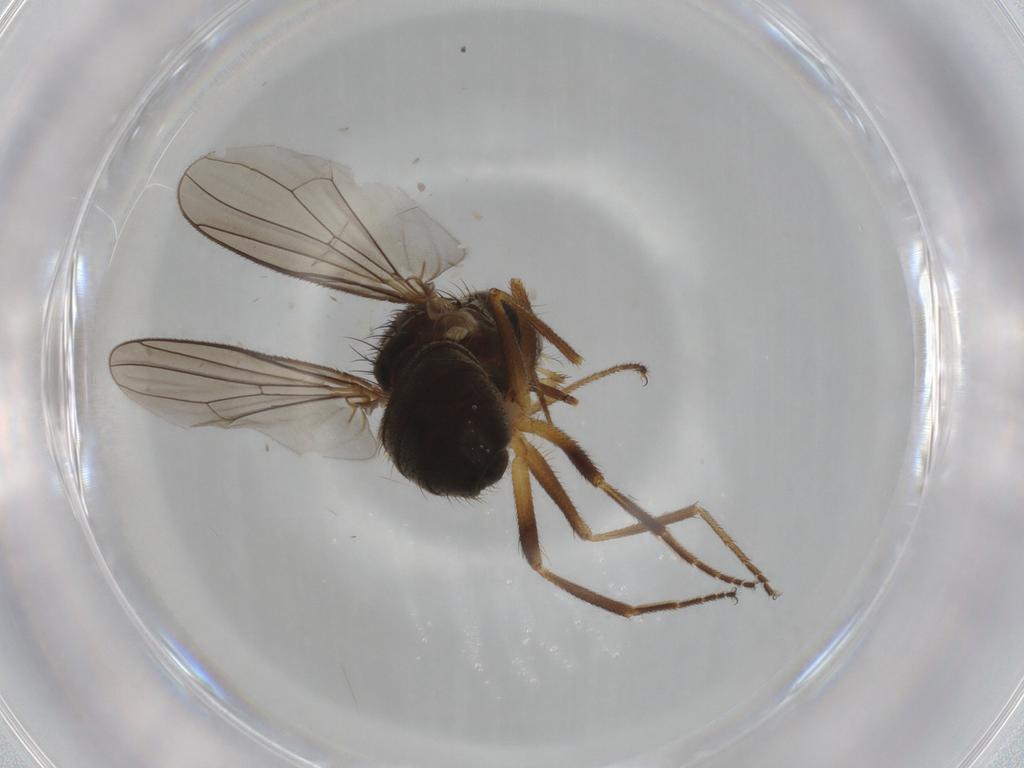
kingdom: Animalia
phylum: Arthropoda
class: Insecta
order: Diptera
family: Muscidae
